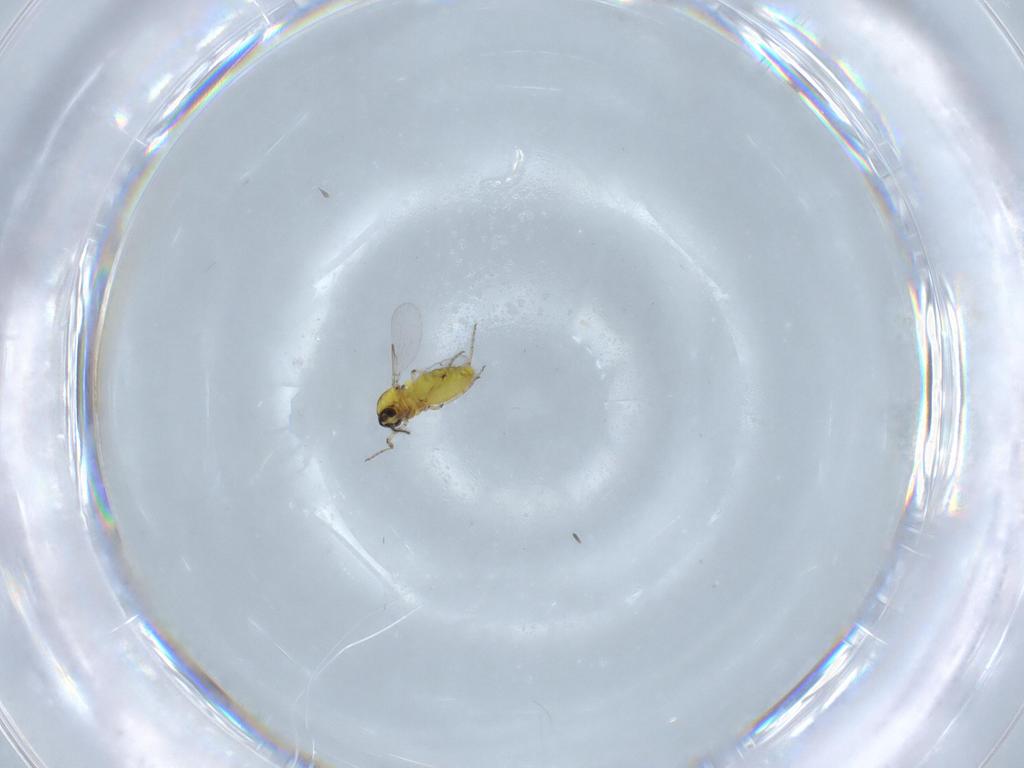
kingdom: Animalia
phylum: Arthropoda
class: Insecta
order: Diptera
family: Ceratopogonidae
